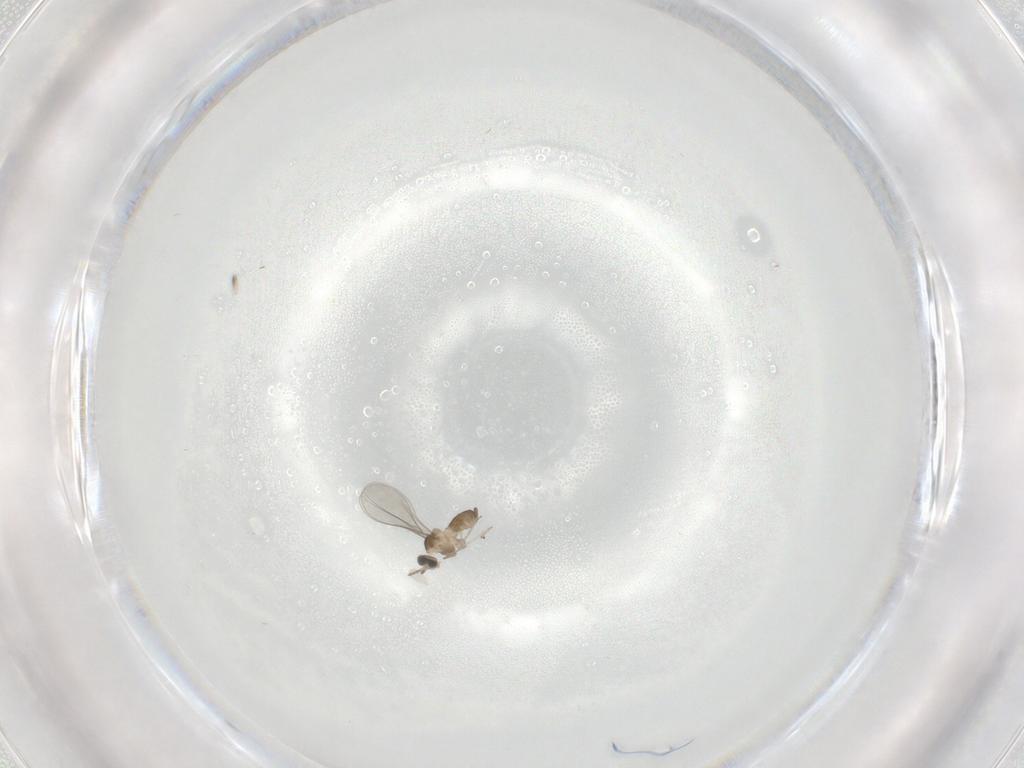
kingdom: Animalia
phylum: Arthropoda
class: Insecta
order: Diptera
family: Cecidomyiidae
